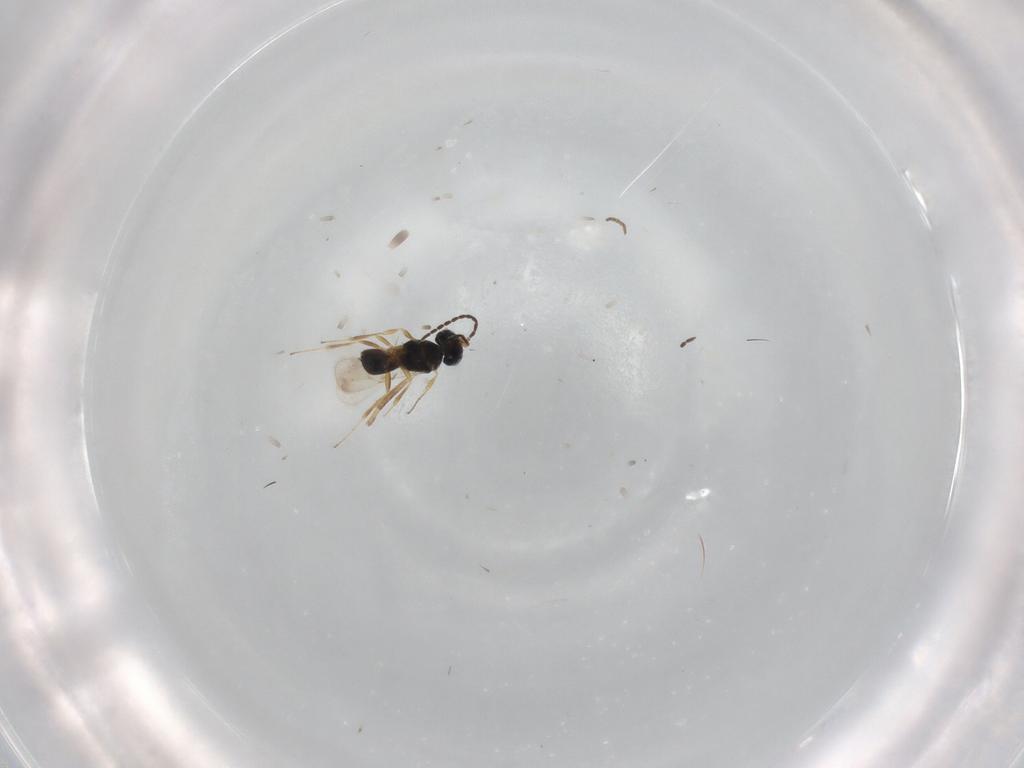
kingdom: Animalia
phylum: Arthropoda
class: Insecta
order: Hymenoptera
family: Scelionidae
